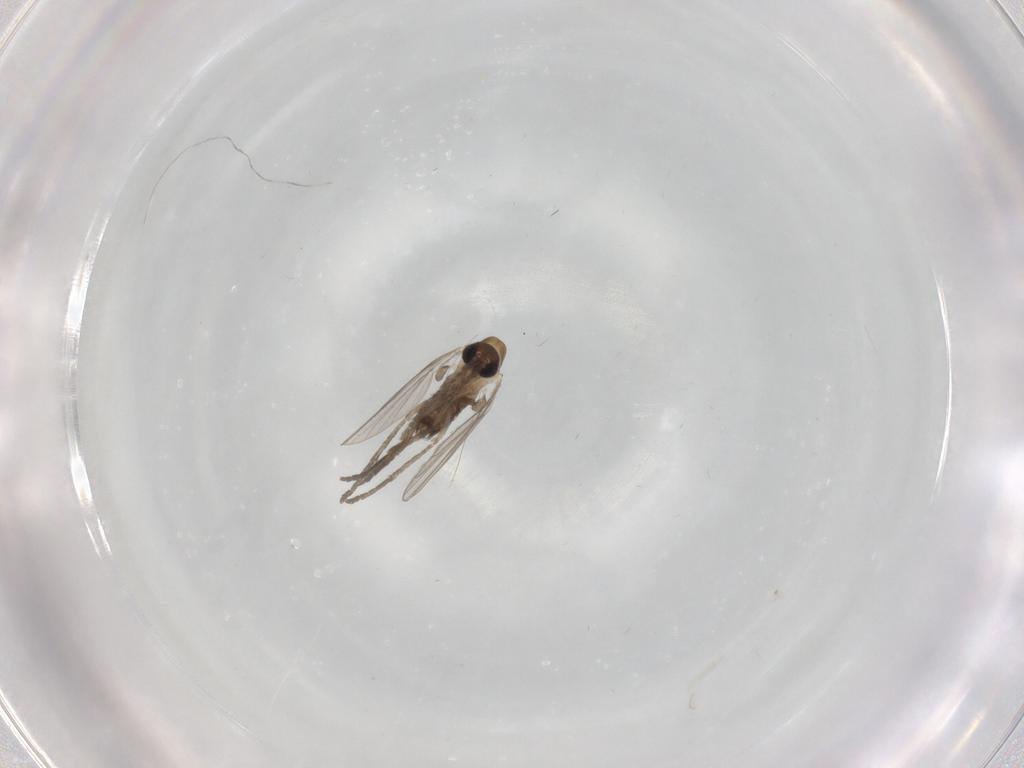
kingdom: Animalia
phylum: Arthropoda
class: Insecta
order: Diptera
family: Psychodidae
